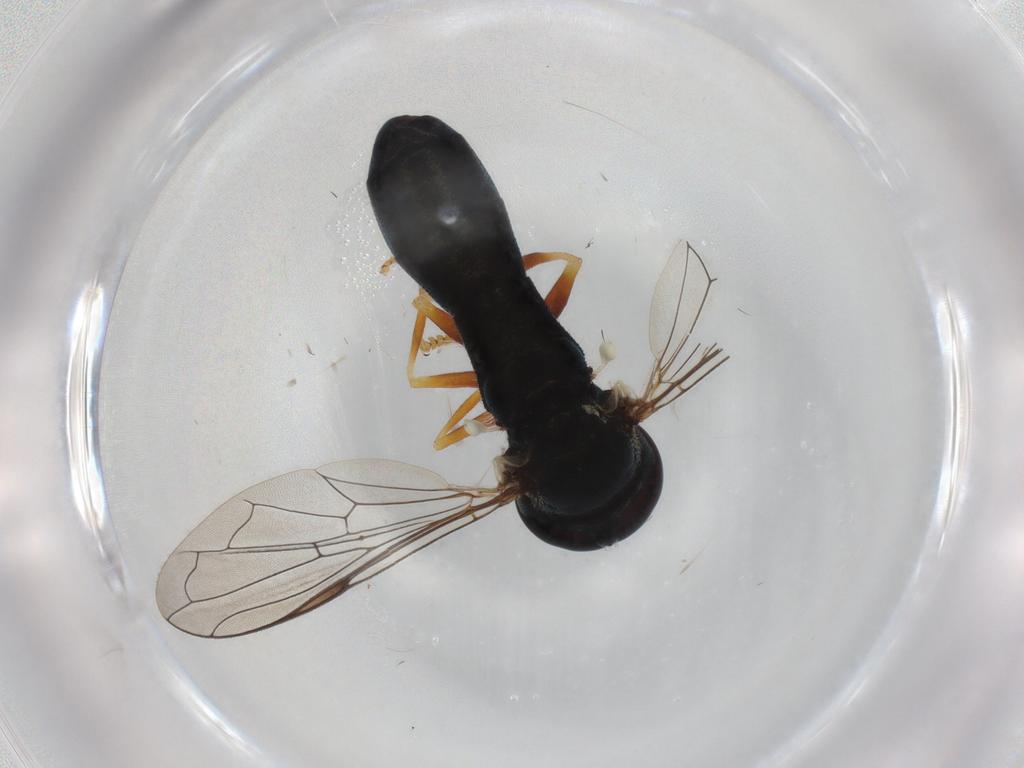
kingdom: Animalia
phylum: Arthropoda
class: Insecta
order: Diptera
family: Syrphidae
